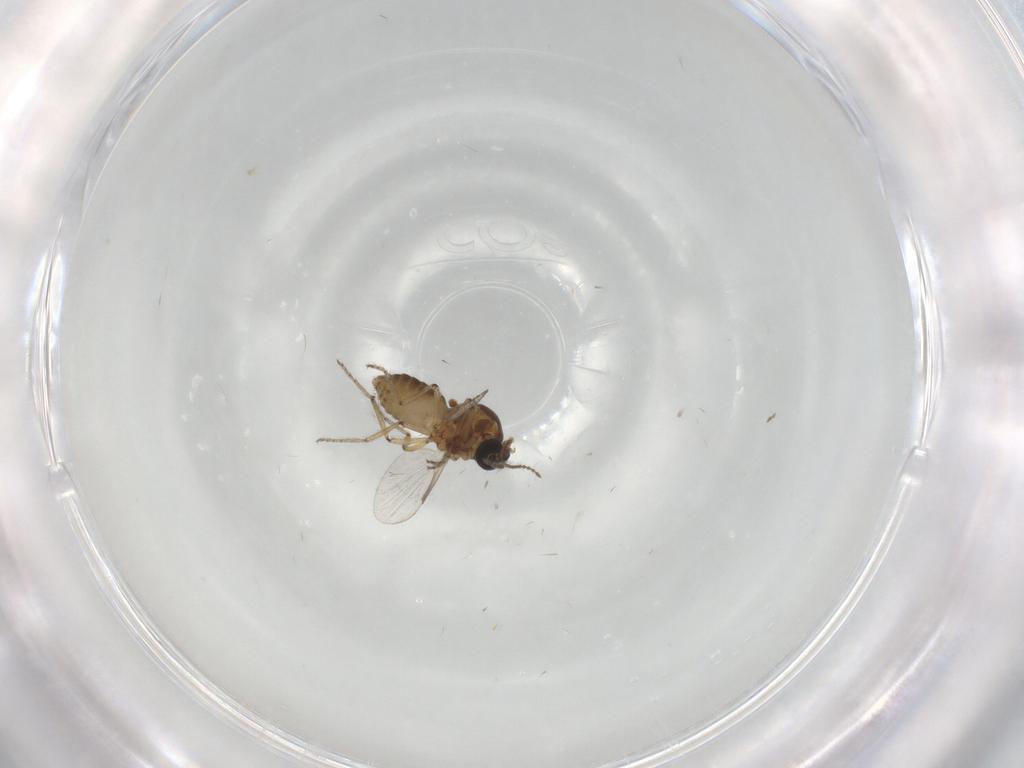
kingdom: Animalia
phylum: Arthropoda
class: Insecta
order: Diptera
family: Ceratopogonidae
